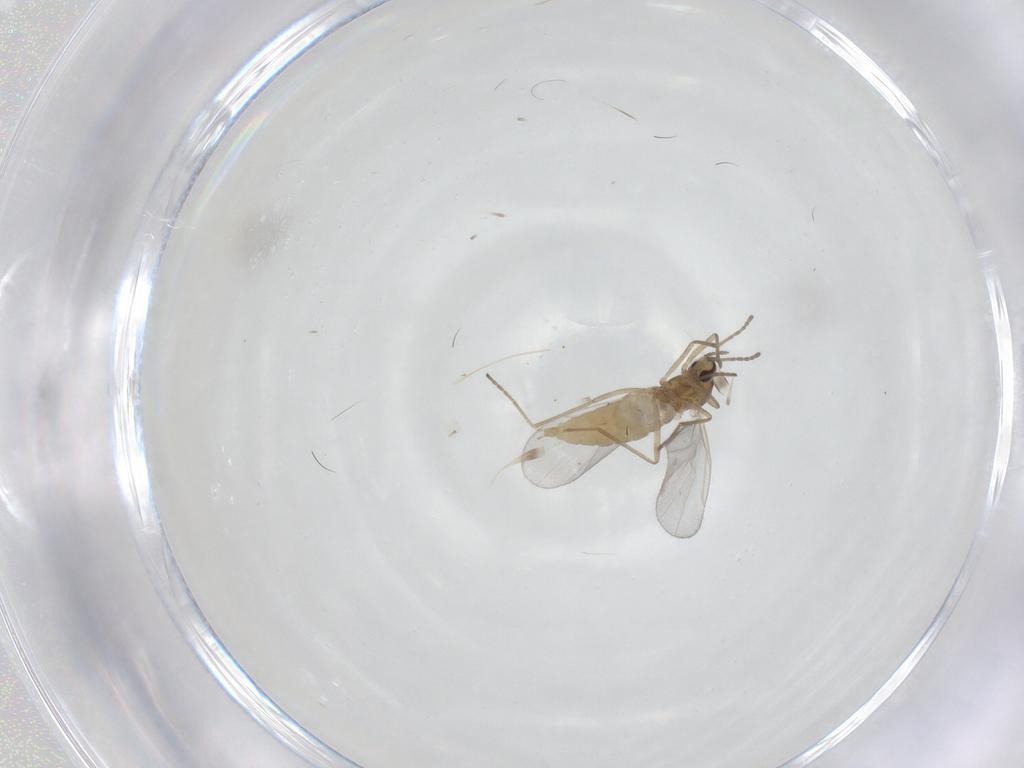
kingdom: Animalia
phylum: Arthropoda
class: Insecta
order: Diptera
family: Cecidomyiidae
